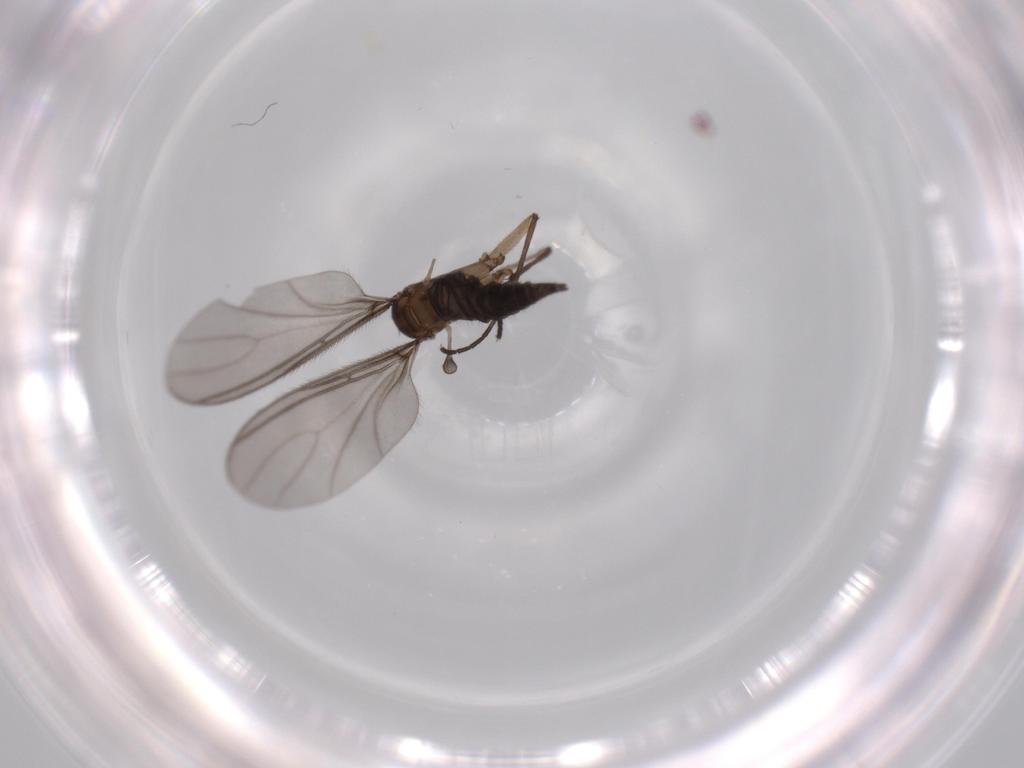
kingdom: Animalia
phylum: Arthropoda
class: Insecta
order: Diptera
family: Sciaridae
